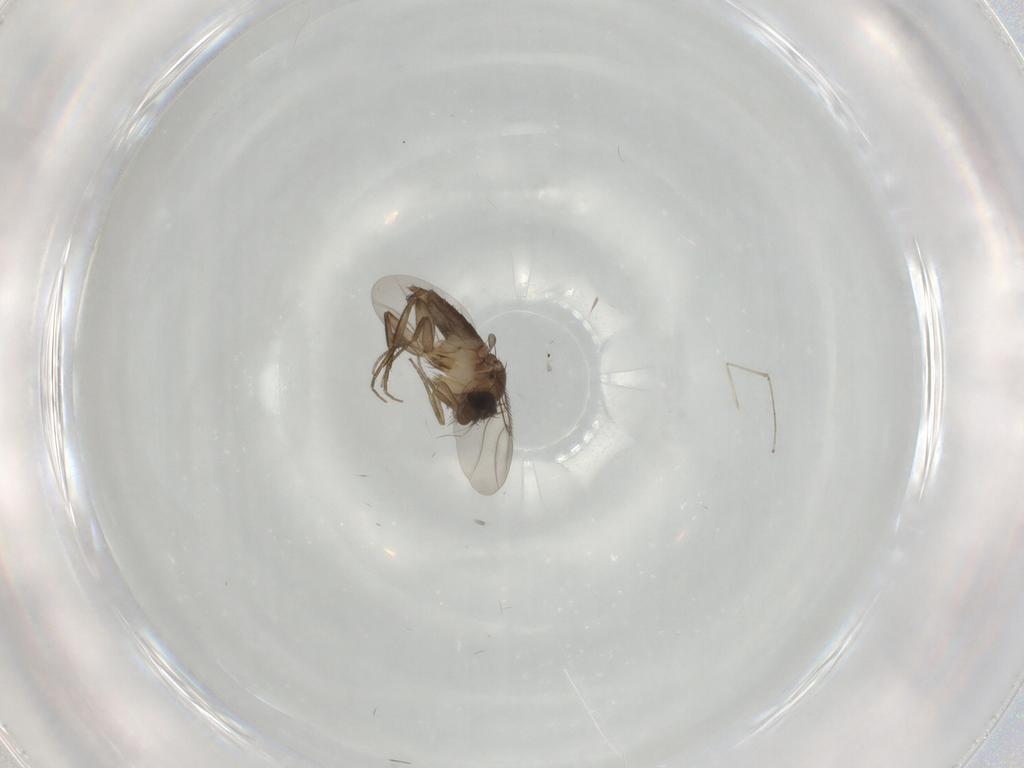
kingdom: Animalia
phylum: Arthropoda
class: Insecta
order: Diptera
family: Phoridae
